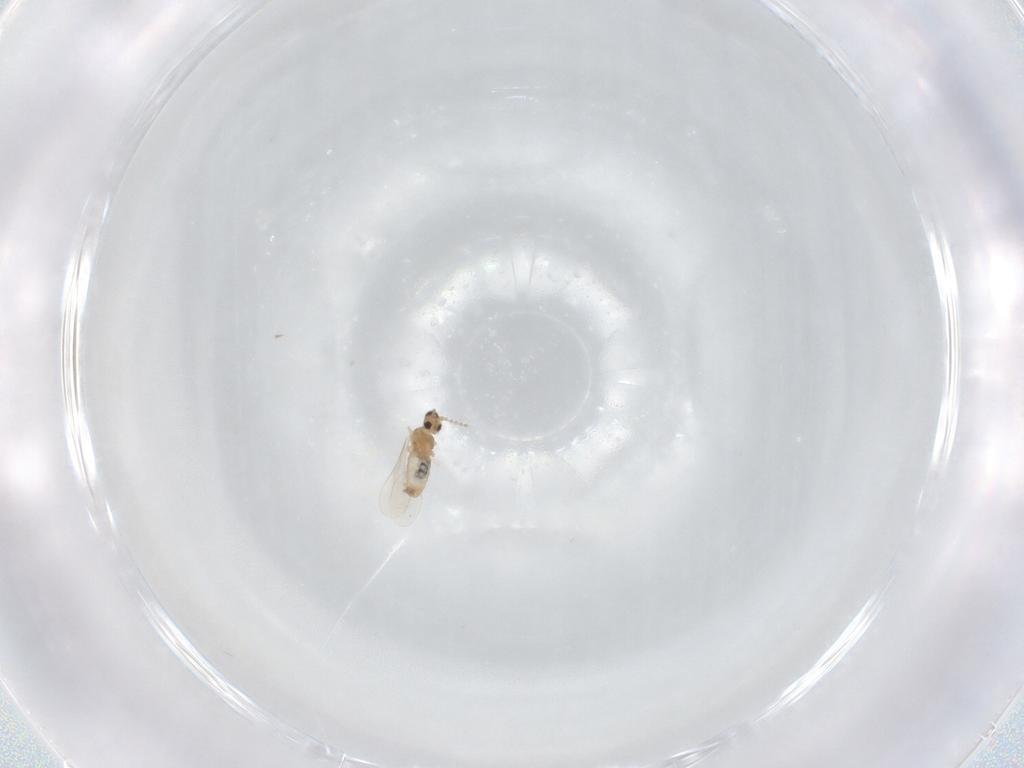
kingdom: Animalia
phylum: Arthropoda
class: Insecta
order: Diptera
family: Cecidomyiidae
